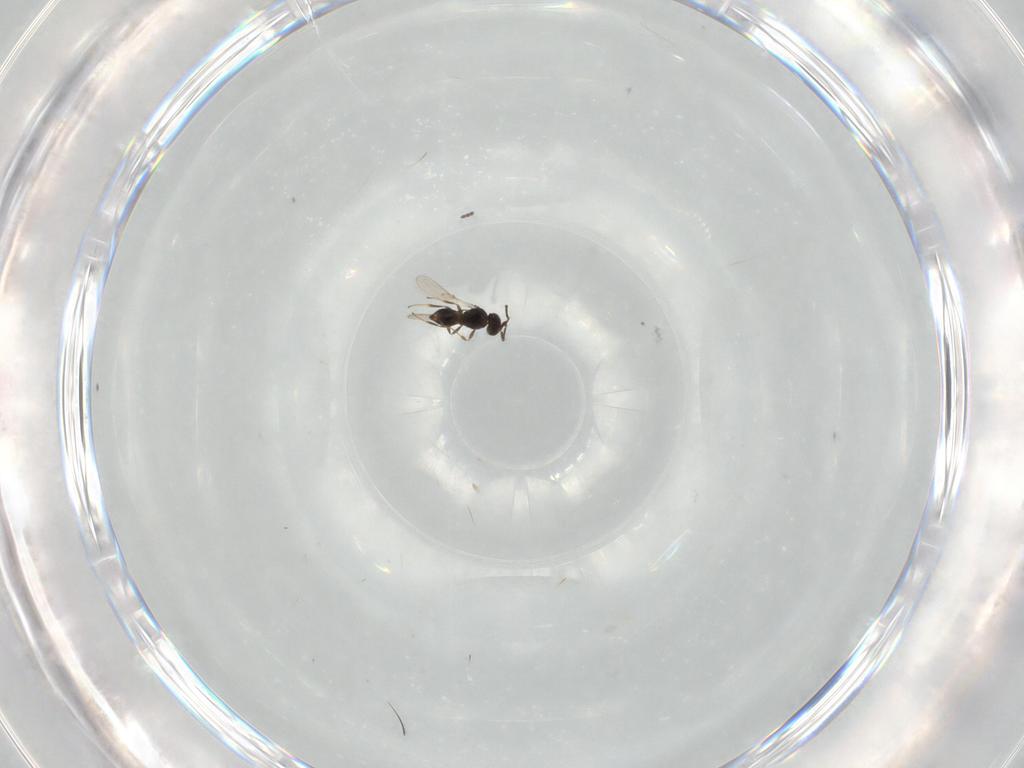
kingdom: Animalia
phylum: Arthropoda
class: Insecta
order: Hymenoptera
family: Scelionidae
